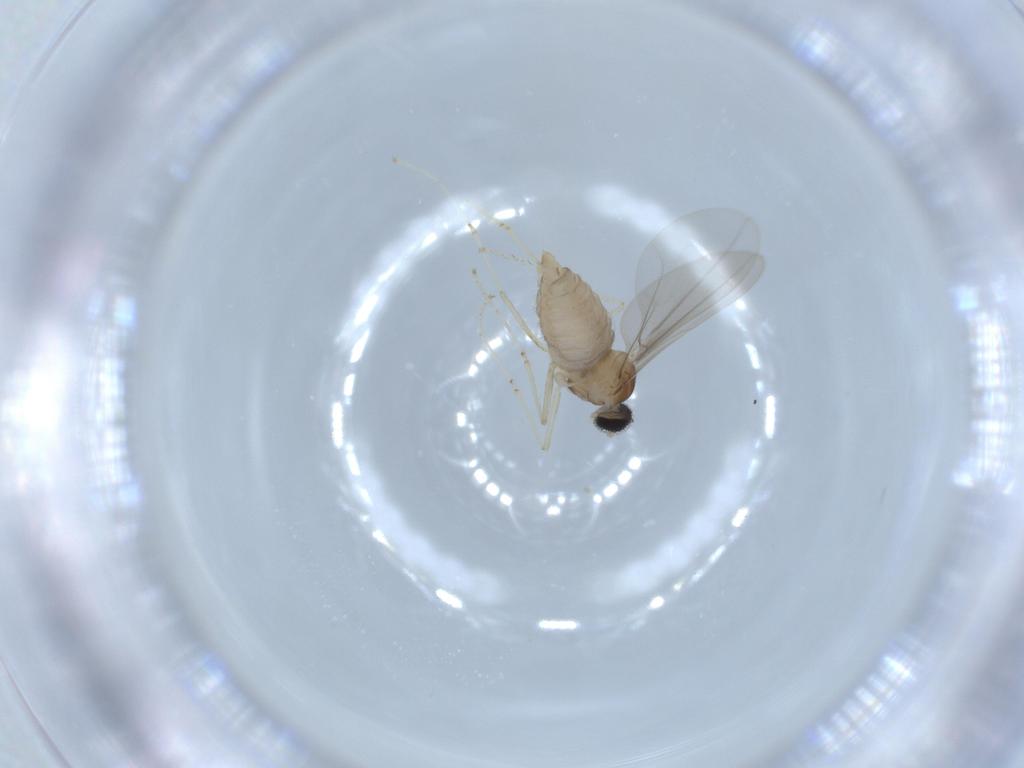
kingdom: Animalia
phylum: Arthropoda
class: Insecta
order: Diptera
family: Cecidomyiidae
